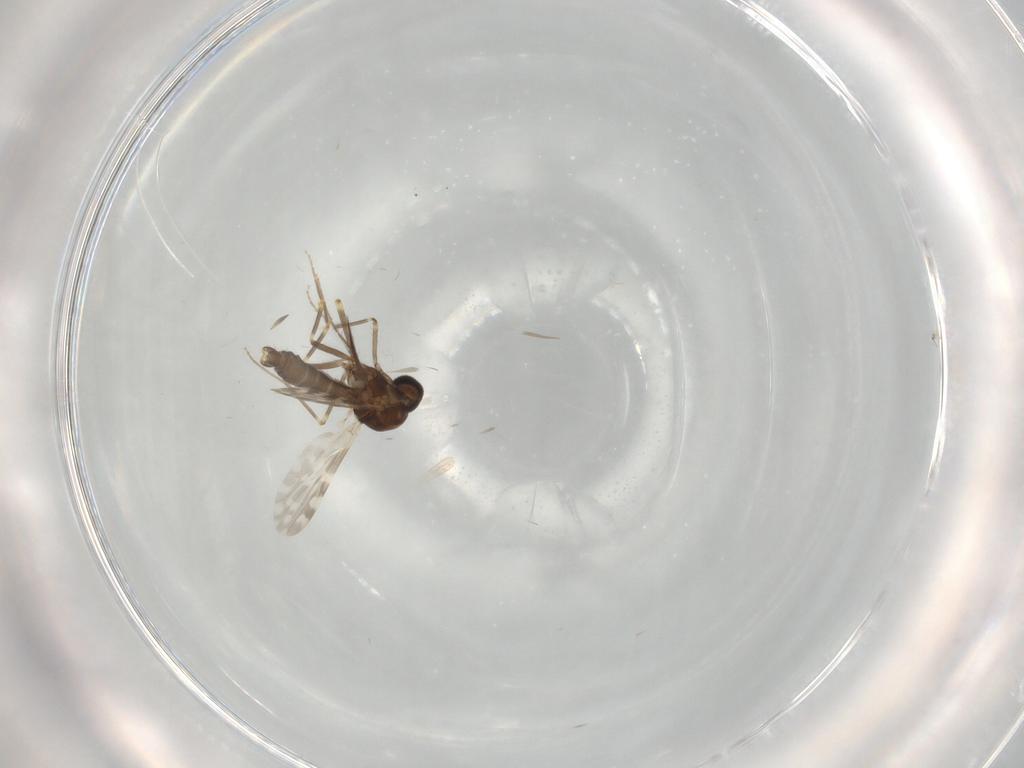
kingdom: Animalia
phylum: Arthropoda
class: Insecta
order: Diptera
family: Ceratopogonidae
